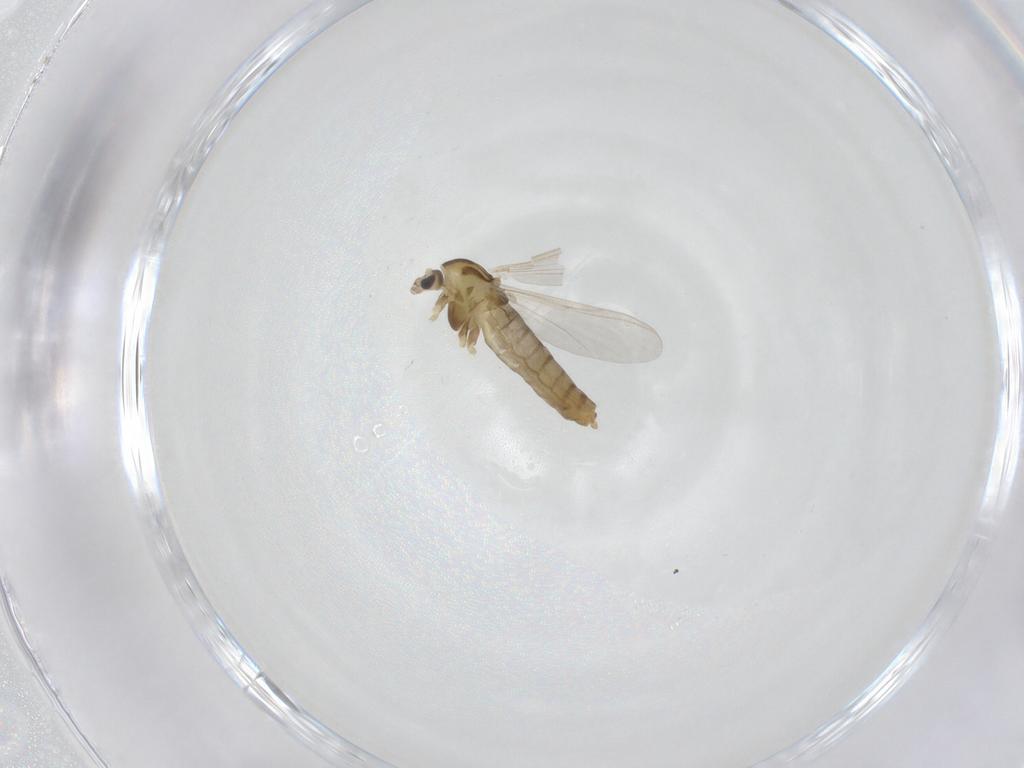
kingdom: Animalia
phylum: Arthropoda
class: Insecta
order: Diptera
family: Chironomidae
